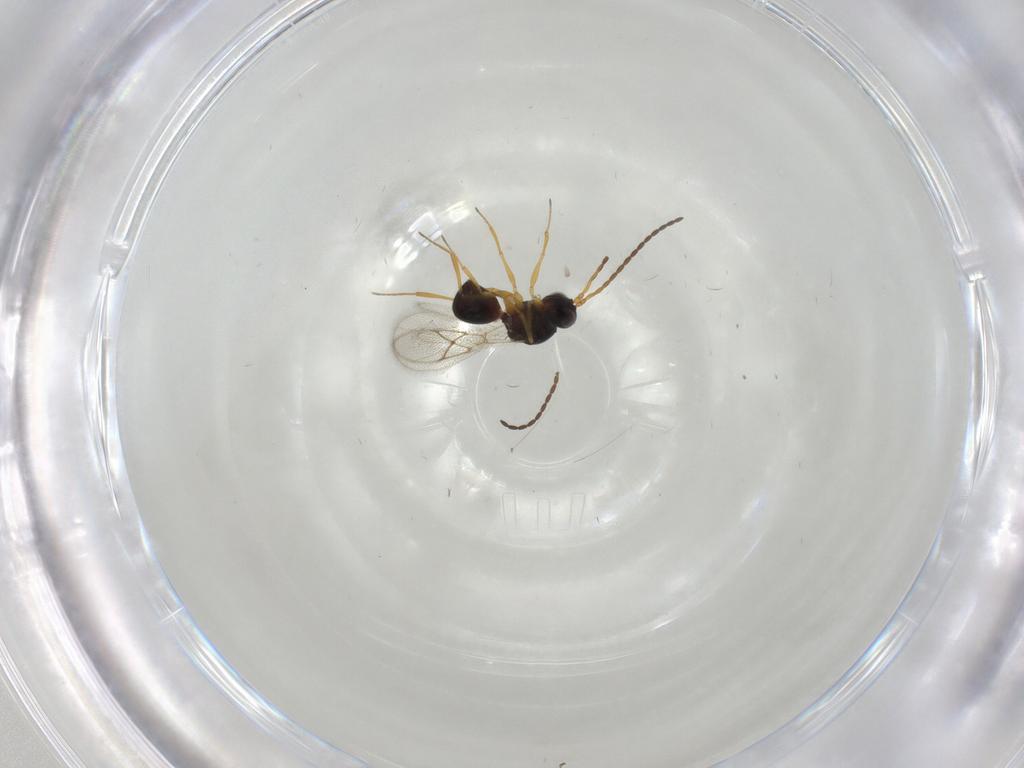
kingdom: Animalia
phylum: Arthropoda
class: Insecta
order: Hymenoptera
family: Figitidae
